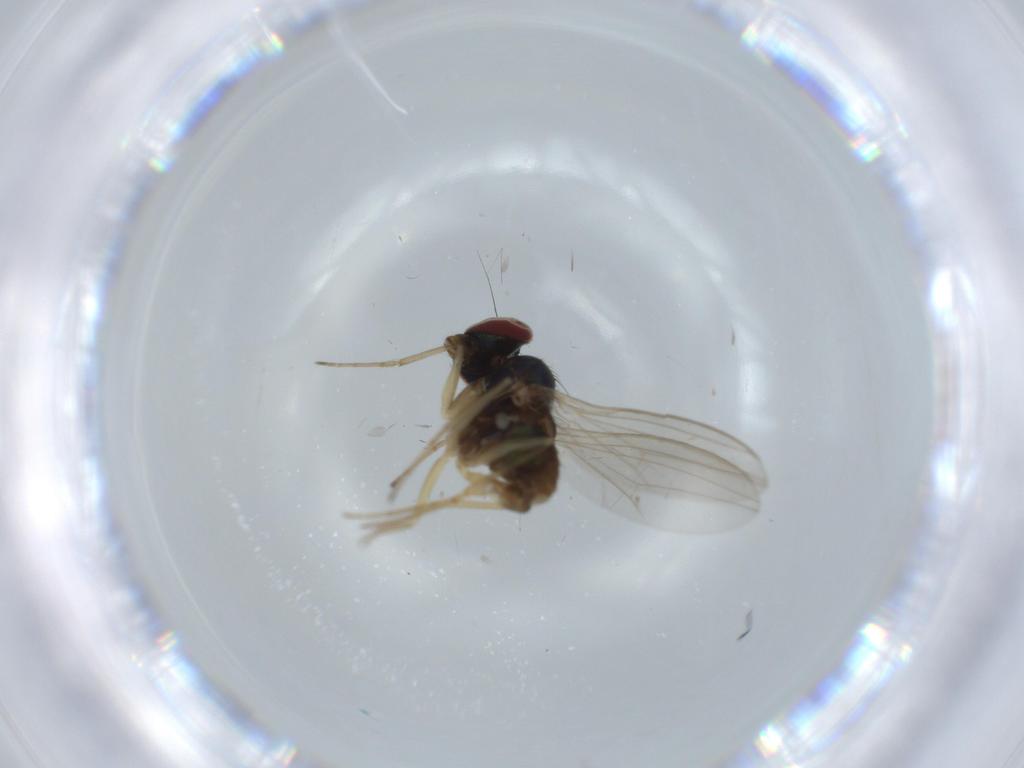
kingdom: Animalia
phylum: Arthropoda
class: Insecta
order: Diptera
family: Dolichopodidae
